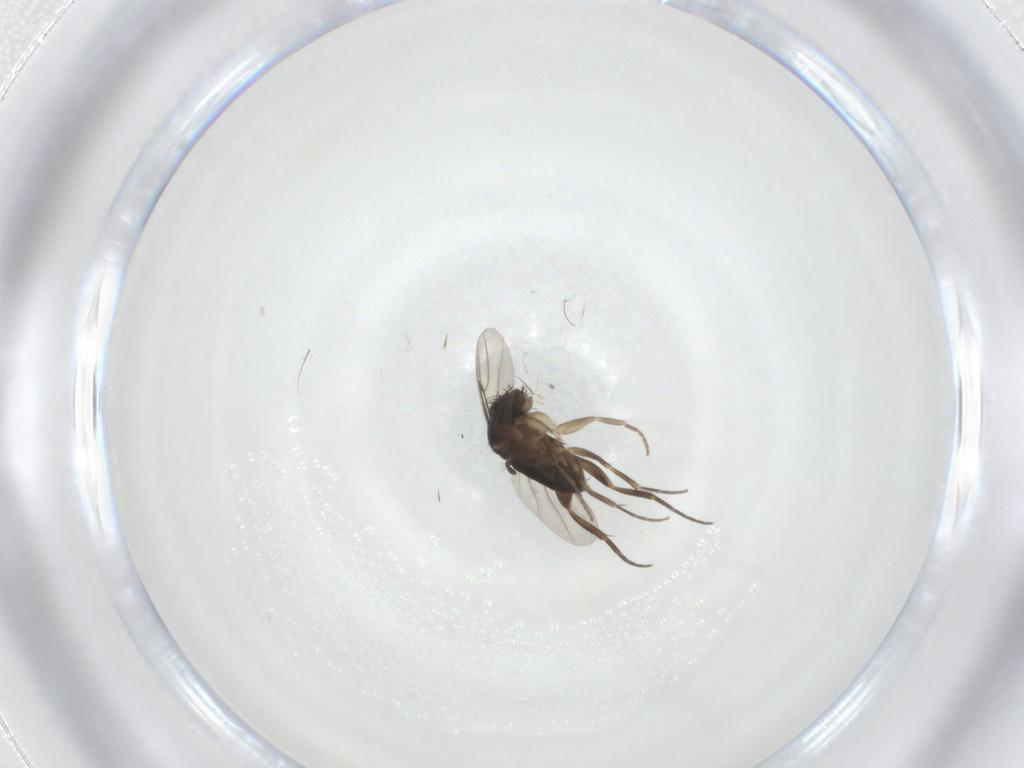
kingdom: Animalia
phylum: Arthropoda
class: Insecta
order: Diptera
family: Phoridae
